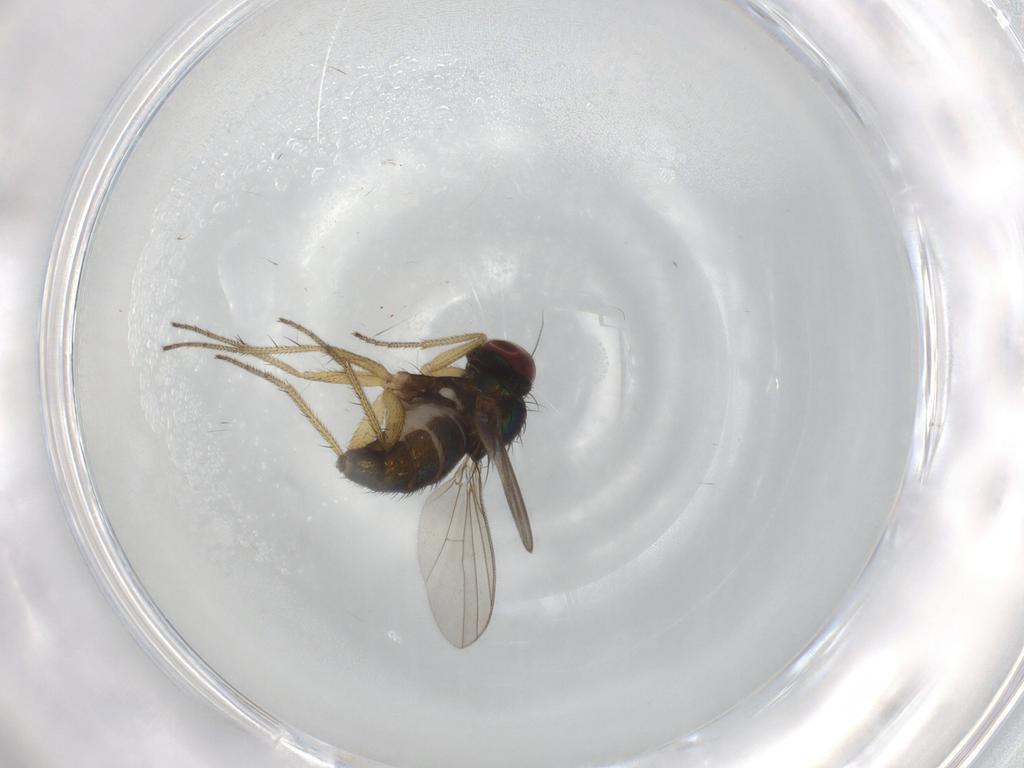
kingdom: Animalia
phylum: Arthropoda
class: Insecta
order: Diptera
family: Dolichopodidae
